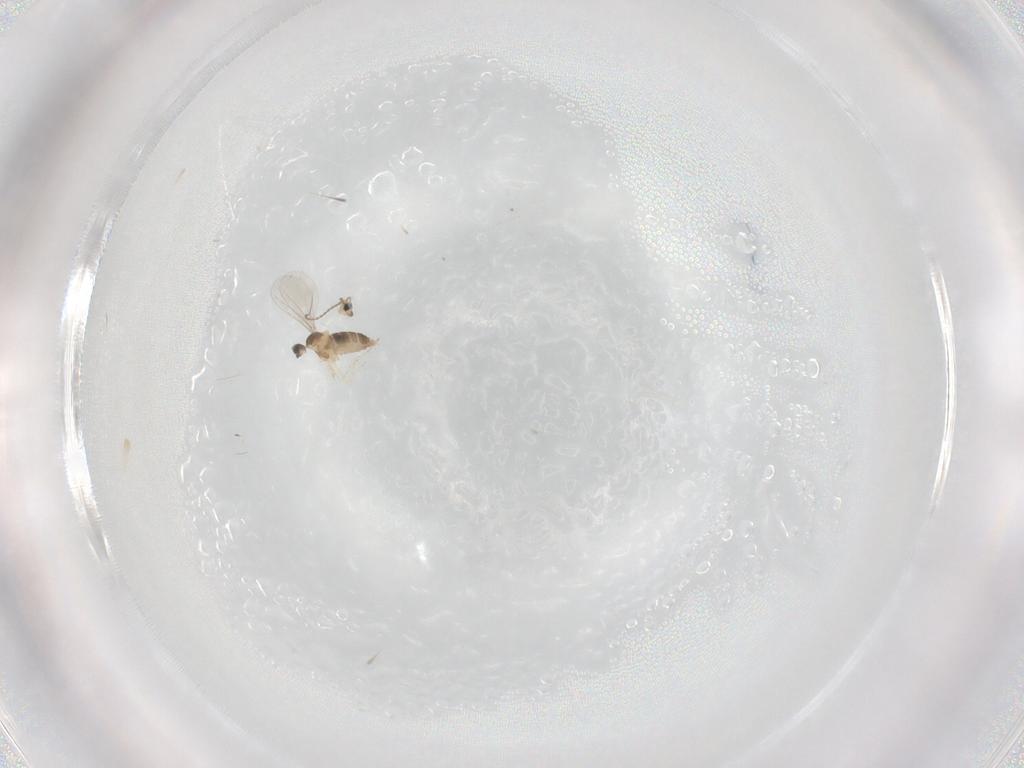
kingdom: Animalia
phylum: Arthropoda
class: Insecta
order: Diptera
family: Cecidomyiidae
